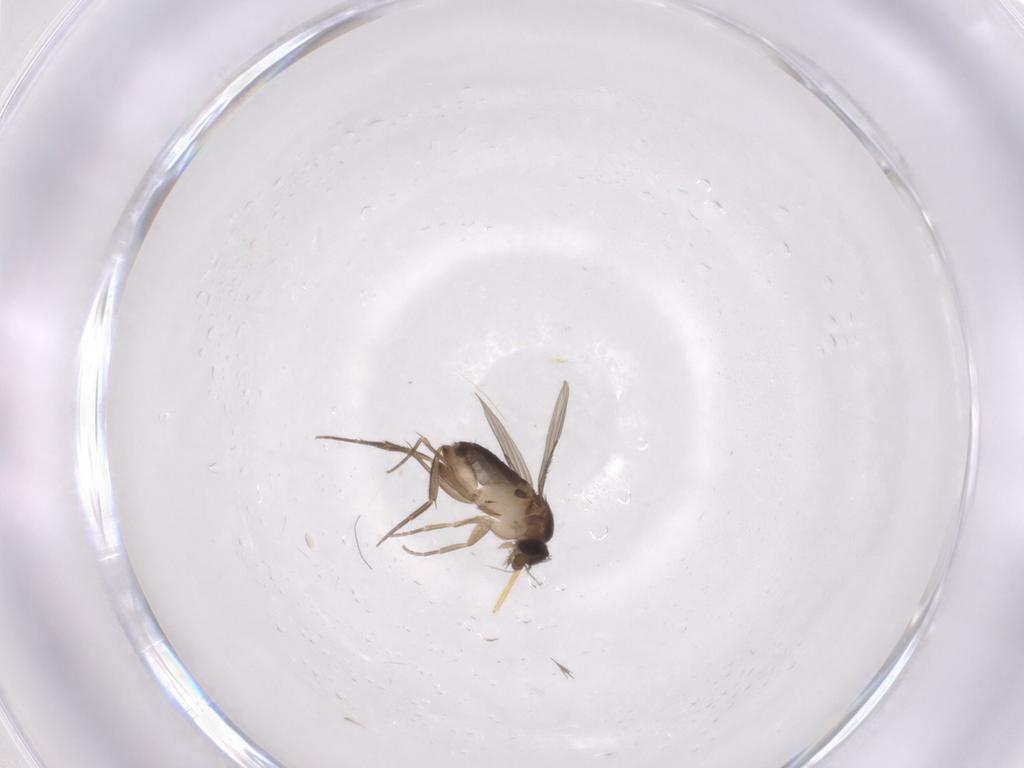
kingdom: Animalia
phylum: Arthropoda
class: Insecta
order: Diptera
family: Phoridae
